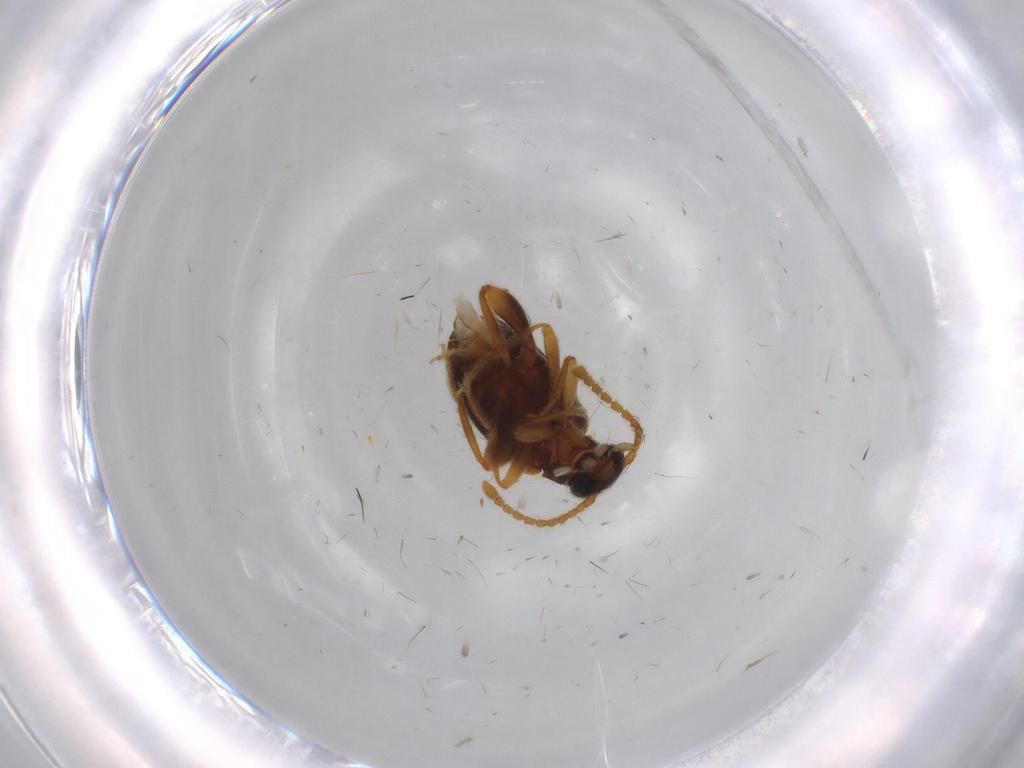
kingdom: Animalia
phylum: Arthropoda
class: Insecta
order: Coleoptera
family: Aderidae
